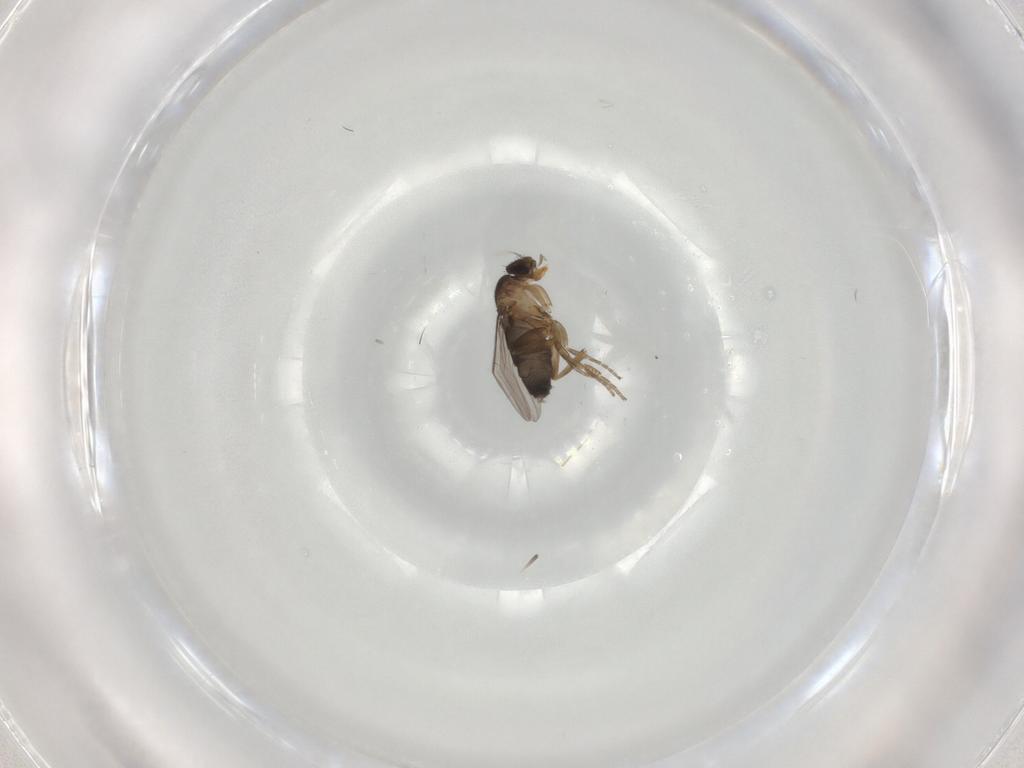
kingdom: Animalia
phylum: Arthropoda
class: Insecta
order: Diptera
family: Phoridae
